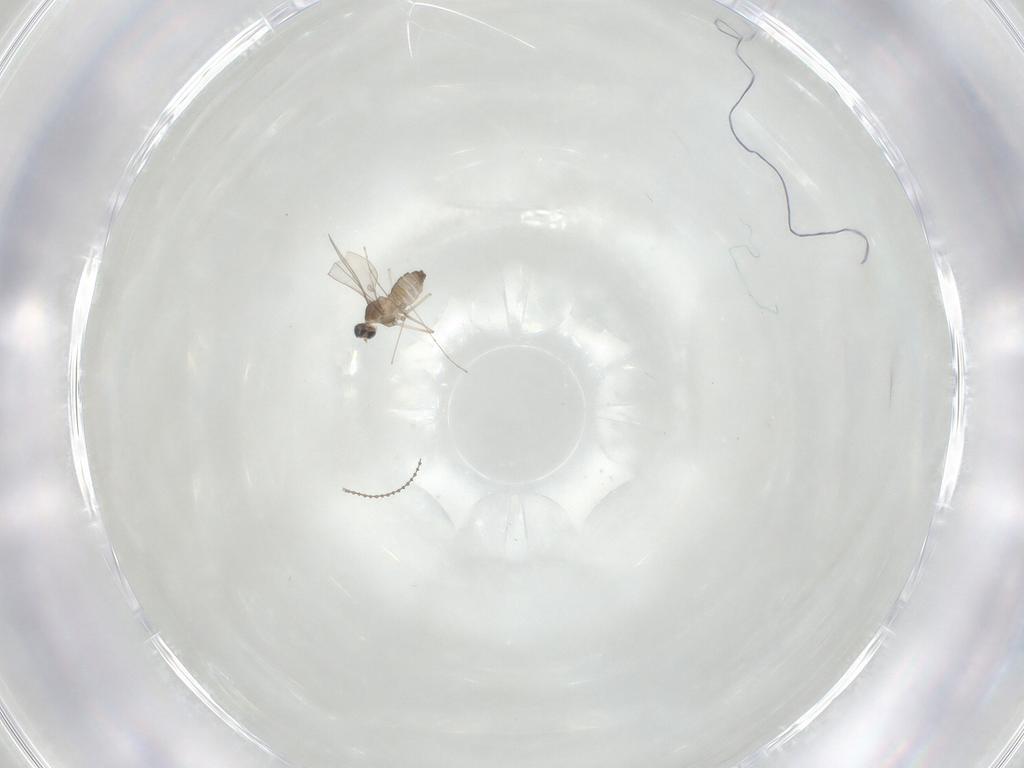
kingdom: Animalia
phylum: Arthropoda
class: Insecta
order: Diptera
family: Cecidomyiidae
